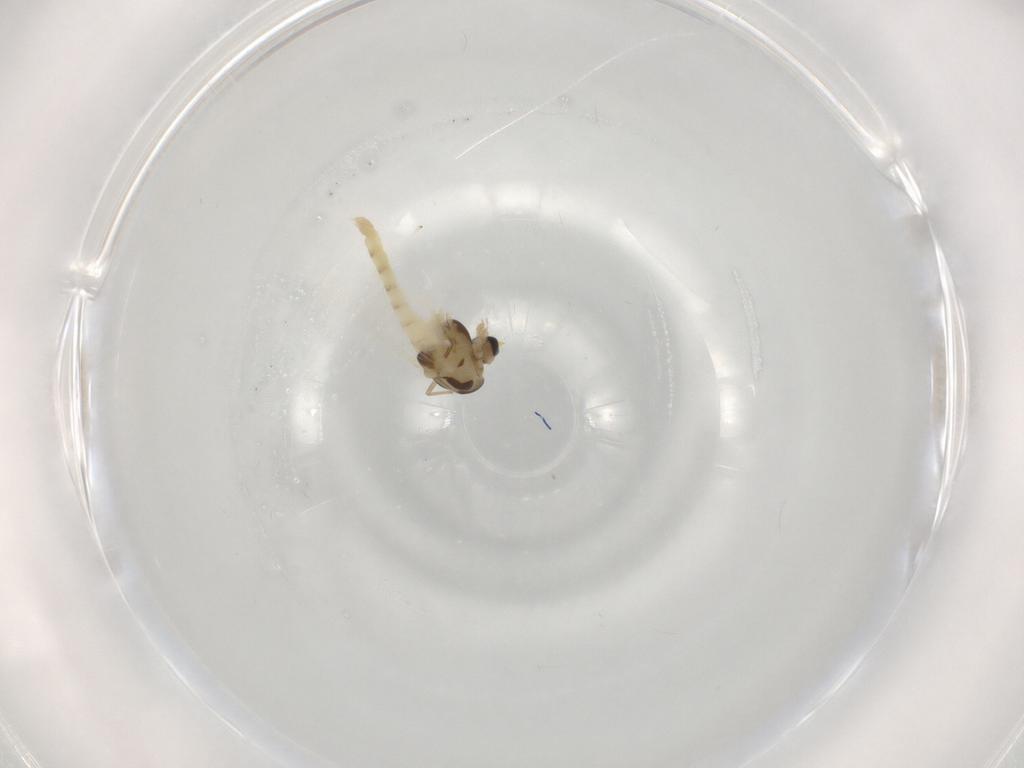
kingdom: Animalia
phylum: Arthropoda
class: Insecta
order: Diptera
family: Chironomidae
